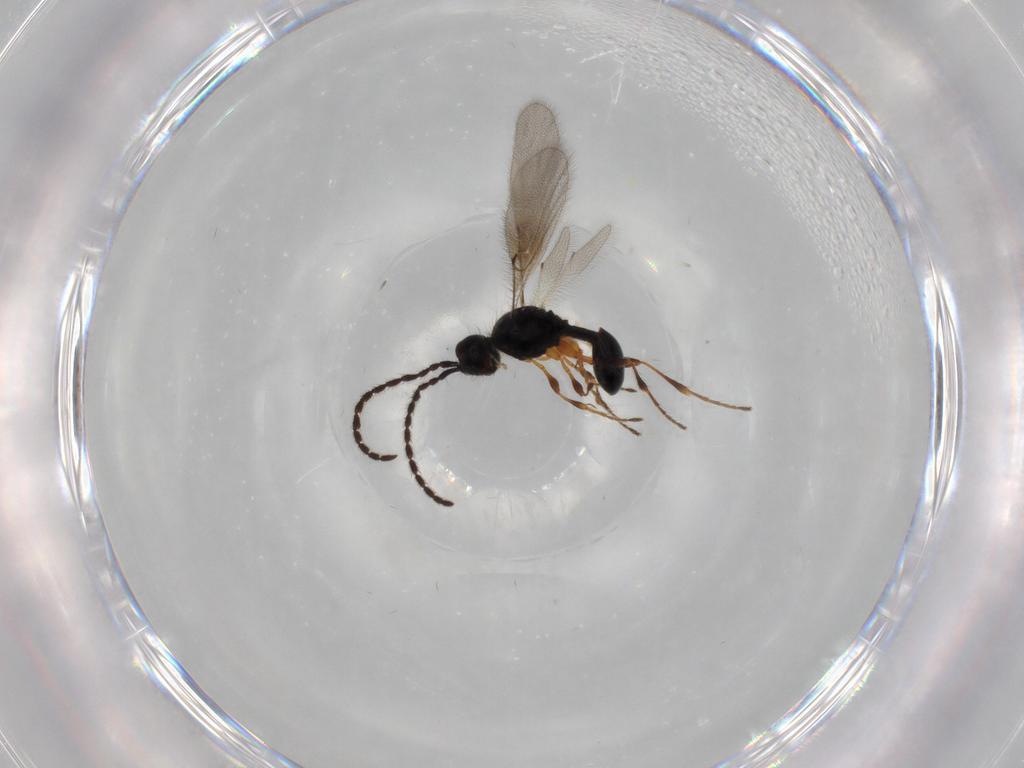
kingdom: Animalia
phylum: Arthropoda
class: Insecta
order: Hymenoptera
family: Diapriidae
